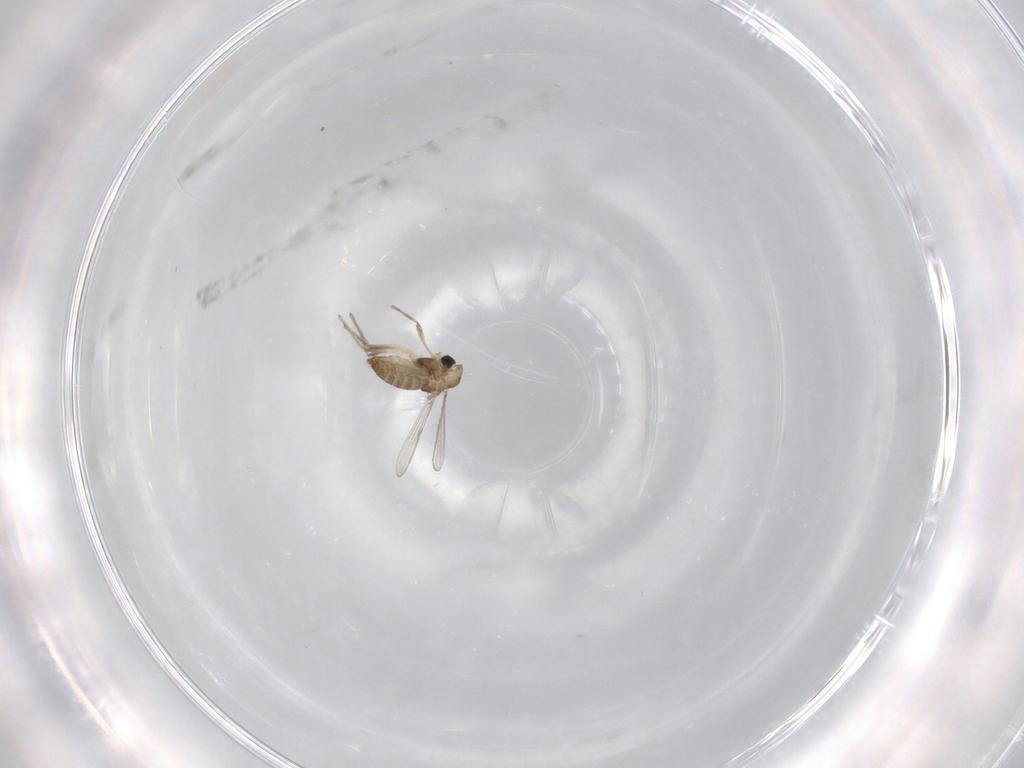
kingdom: Animalia
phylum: Arthropoda
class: Insecta
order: Diptera
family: Chironomidae
